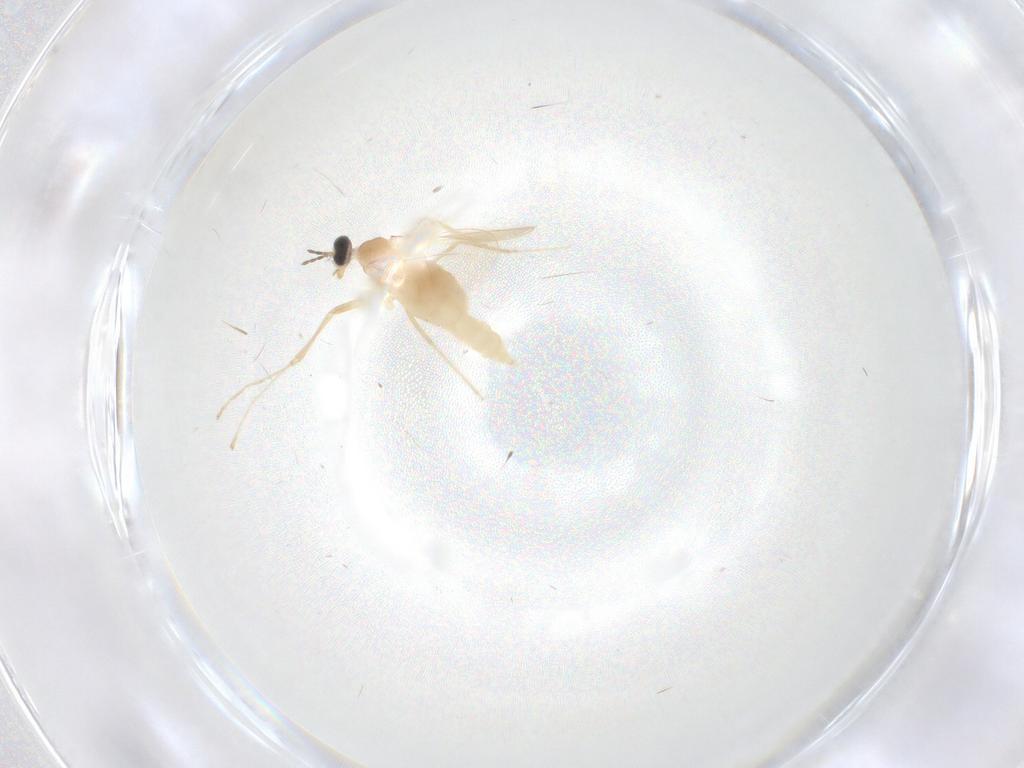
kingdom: Animalia
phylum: Arthropoda
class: Insecta
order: Diptera
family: Cecidomyiidae
